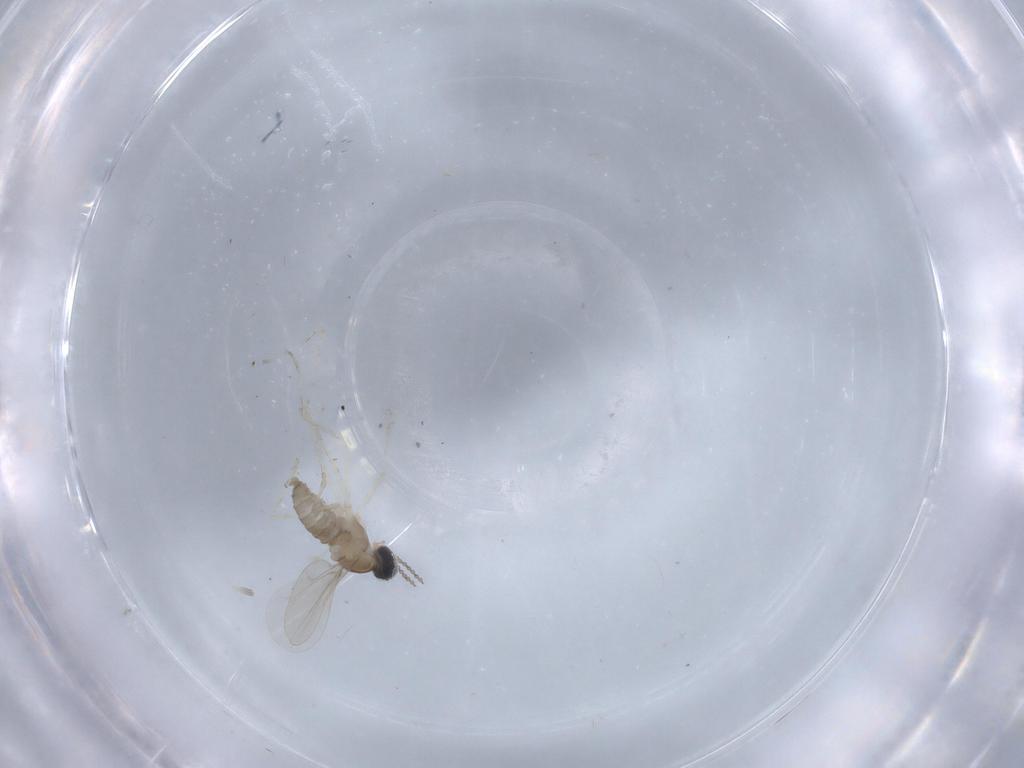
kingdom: Animalia
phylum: Arthropoda
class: Insecta
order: Diptera
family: Cecidomyiidae
